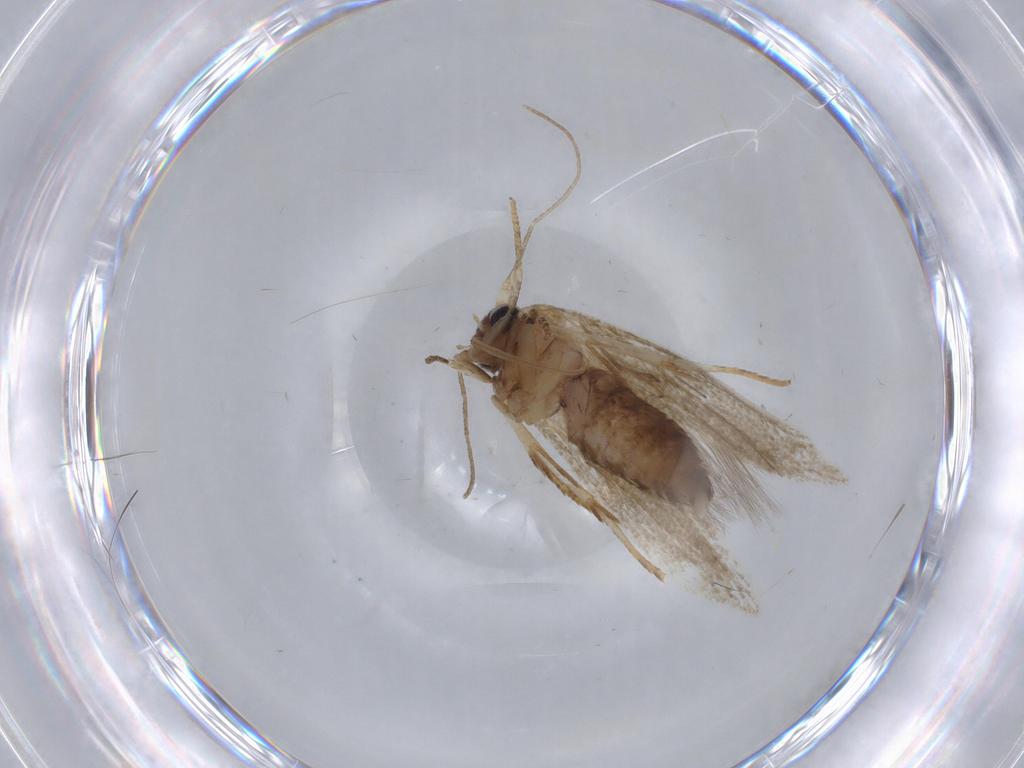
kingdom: Animalia
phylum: Arthropoda
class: Insecta
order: Lepidoptera
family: Blastobasidae
